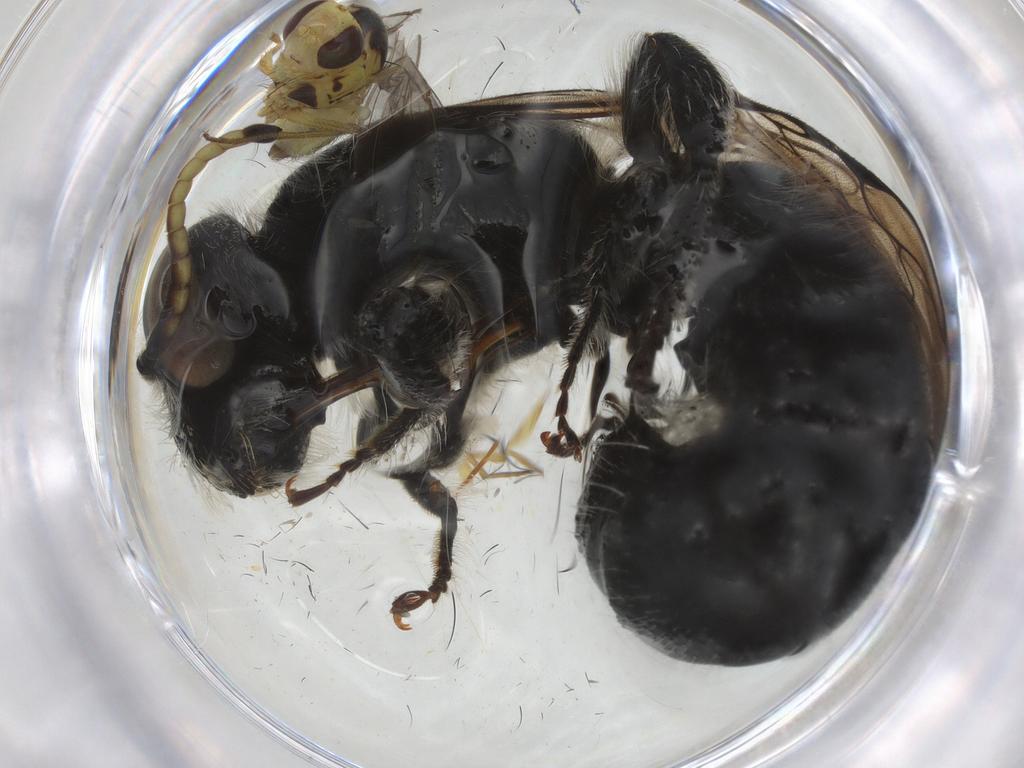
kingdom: Animalia
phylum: Arthropoda
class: Insecta
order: Hymenoptera
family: Formicidae
